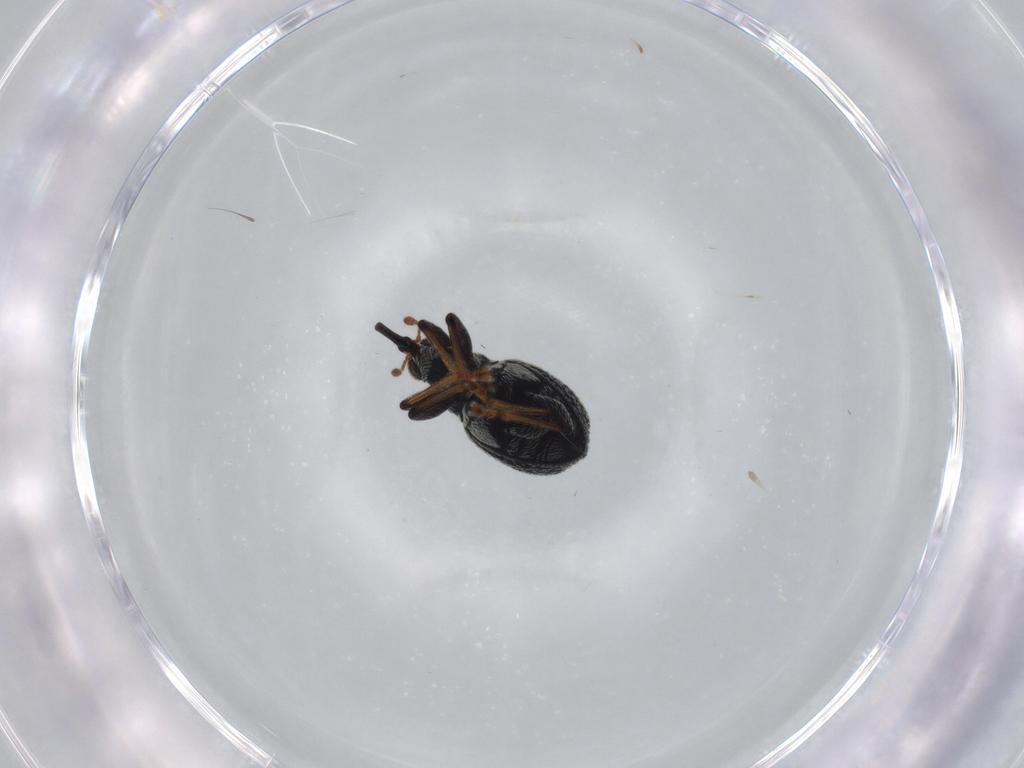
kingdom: Animalia
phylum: Arthropoda
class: Insecta
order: Coleoptera
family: Brentidae
